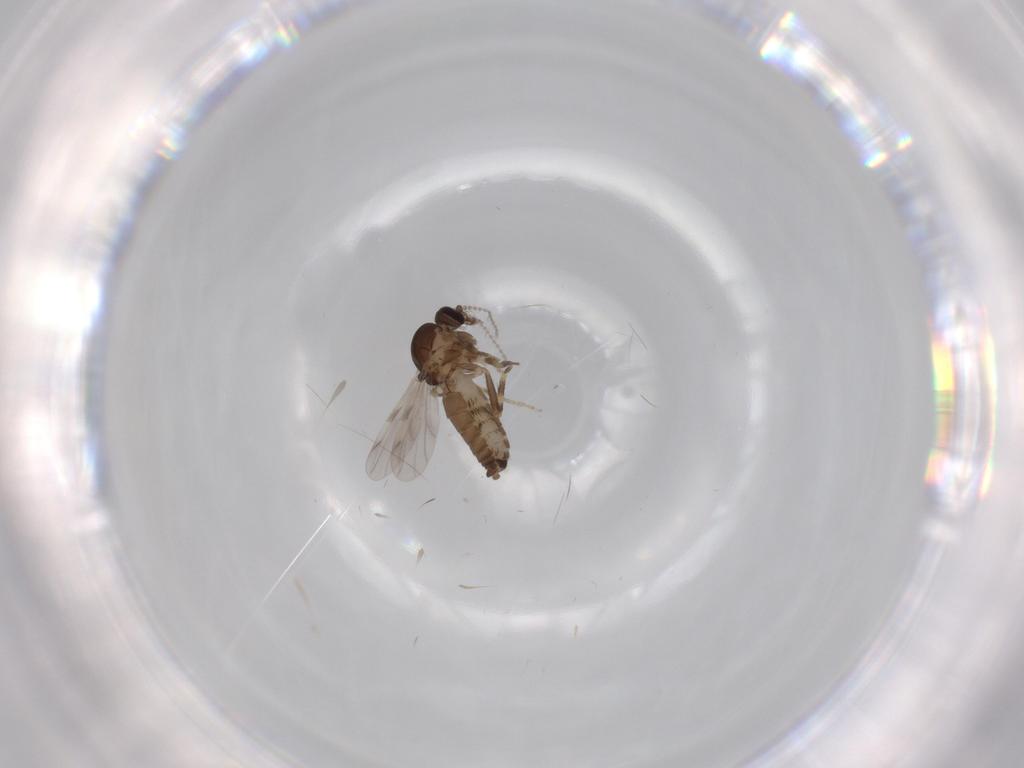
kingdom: Animalia
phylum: Arthropoda
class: Insecta
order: Diptera
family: Ceratopogonidae
